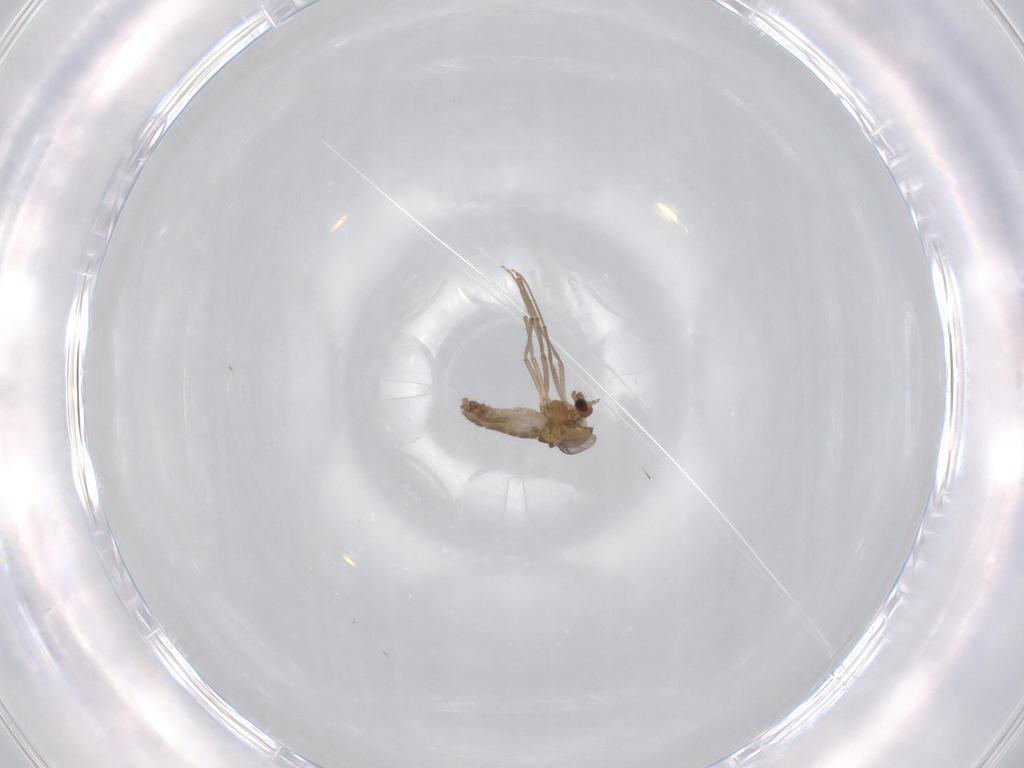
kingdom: Animalia
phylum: Arthropoda
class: Insecta
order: Diptera
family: Chironomidae
